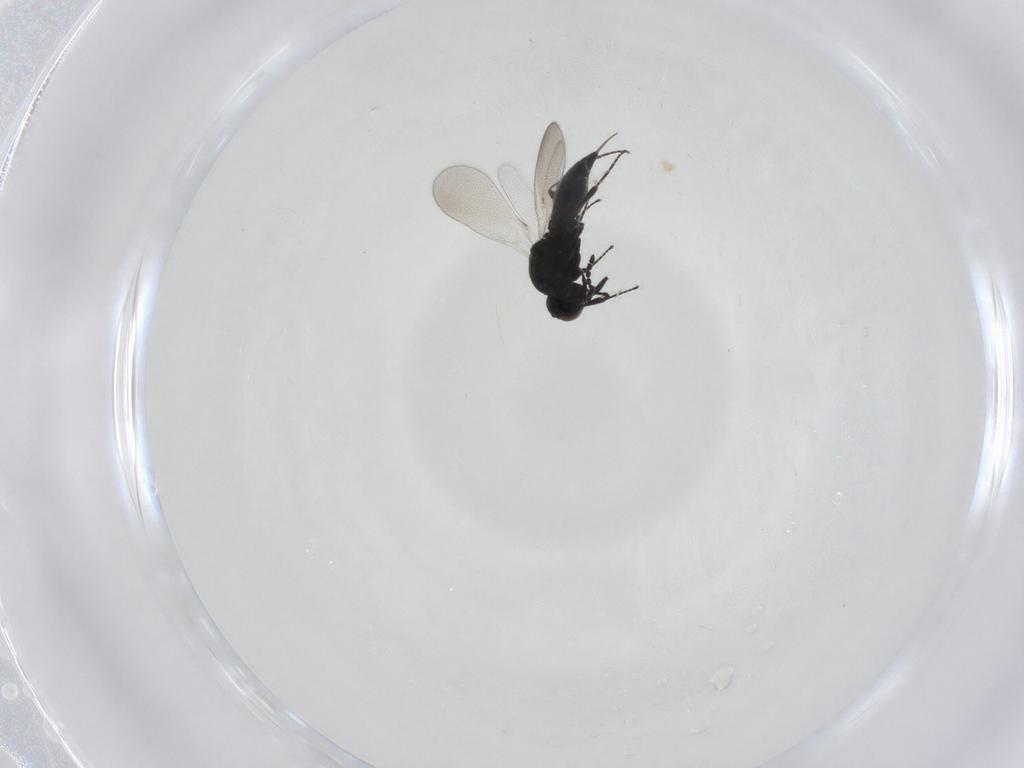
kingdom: Animalia
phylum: Arthropoda
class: Insecta
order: Hymenoptera
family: Platygastridae
